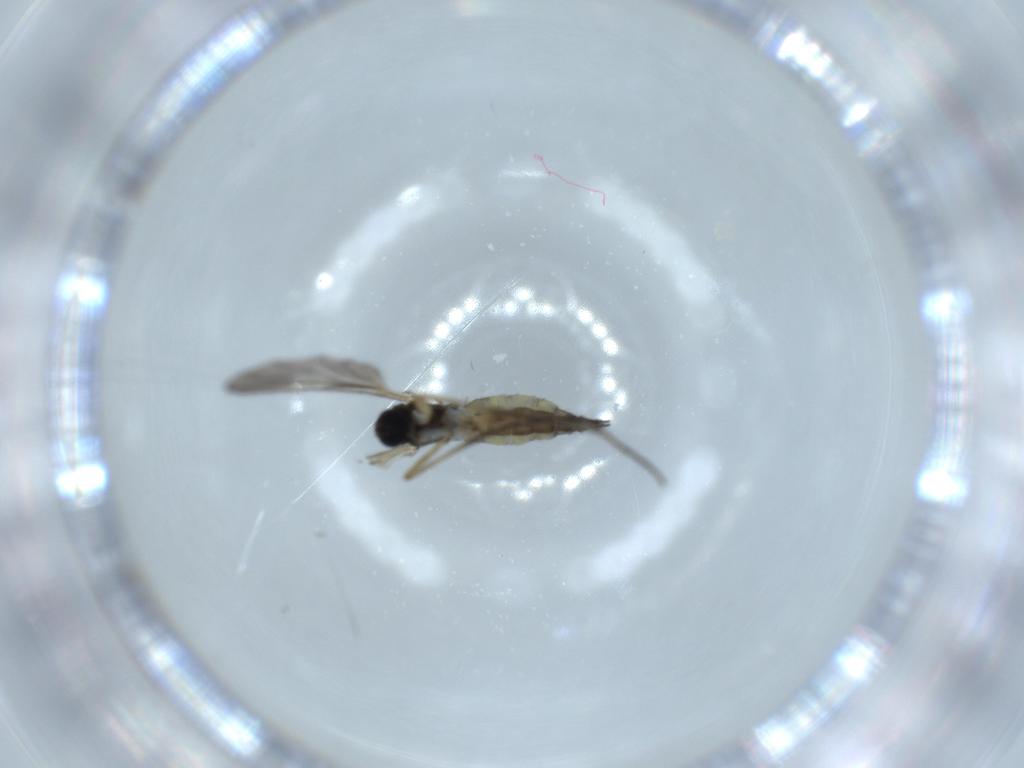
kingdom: Animalia
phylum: Arthropoda
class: Insecta
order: Diptera
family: Sciaridae
